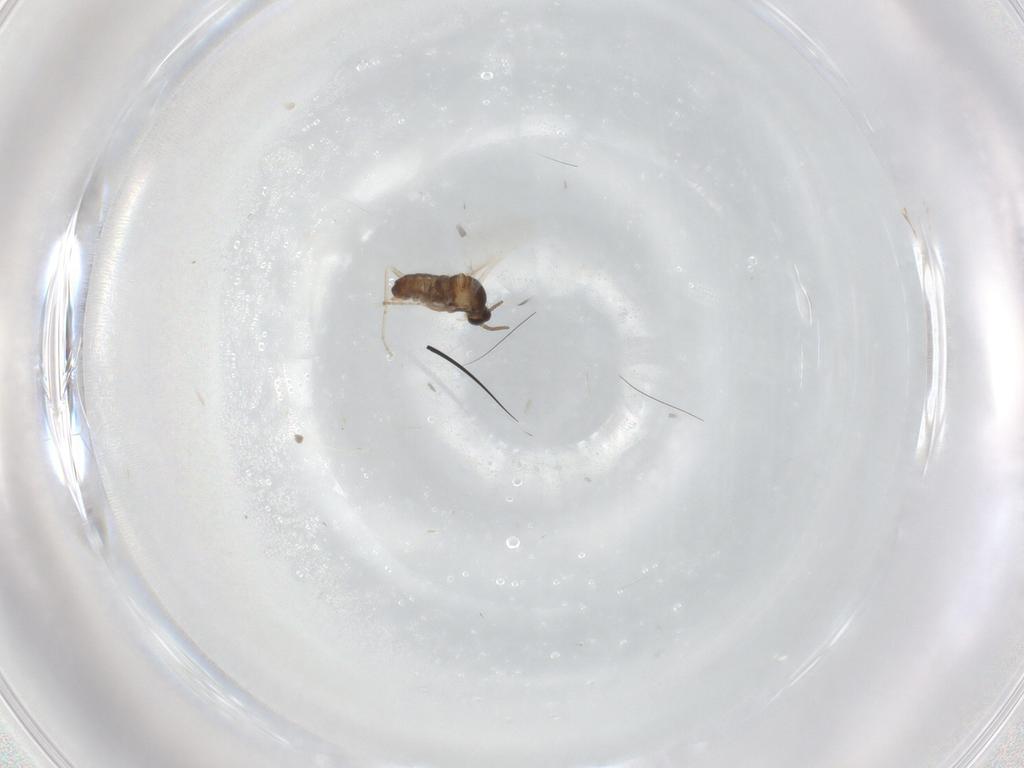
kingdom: Animalia
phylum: Arthropoda
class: Insecta
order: Diptera
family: Cecidomyiidae
